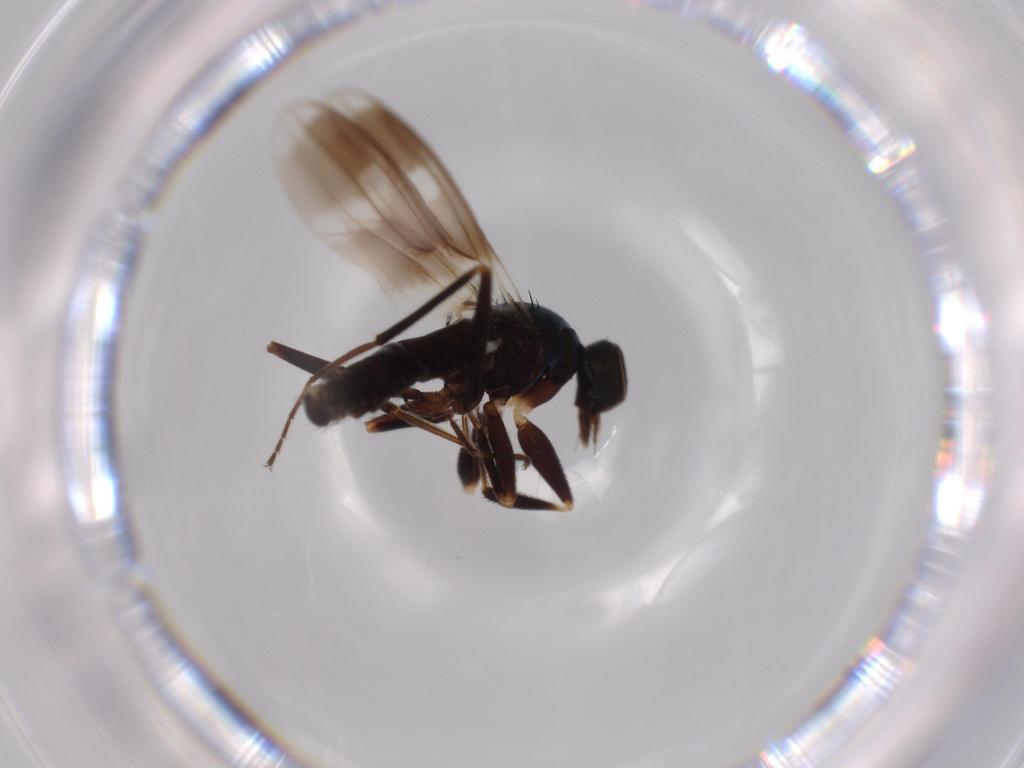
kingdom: Animalia
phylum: Arthropoda
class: Insecta
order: Diptera
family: Hybotidae
